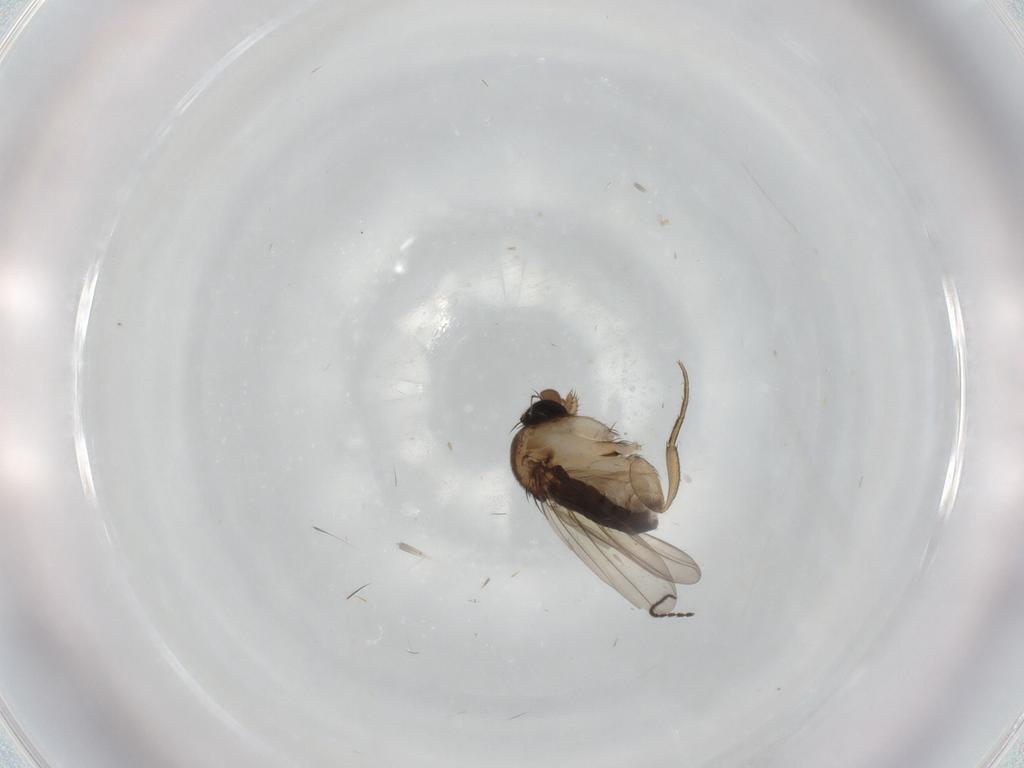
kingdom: Animalia
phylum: Arthropoda
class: Insecta
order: Diptera
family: Phoridae
